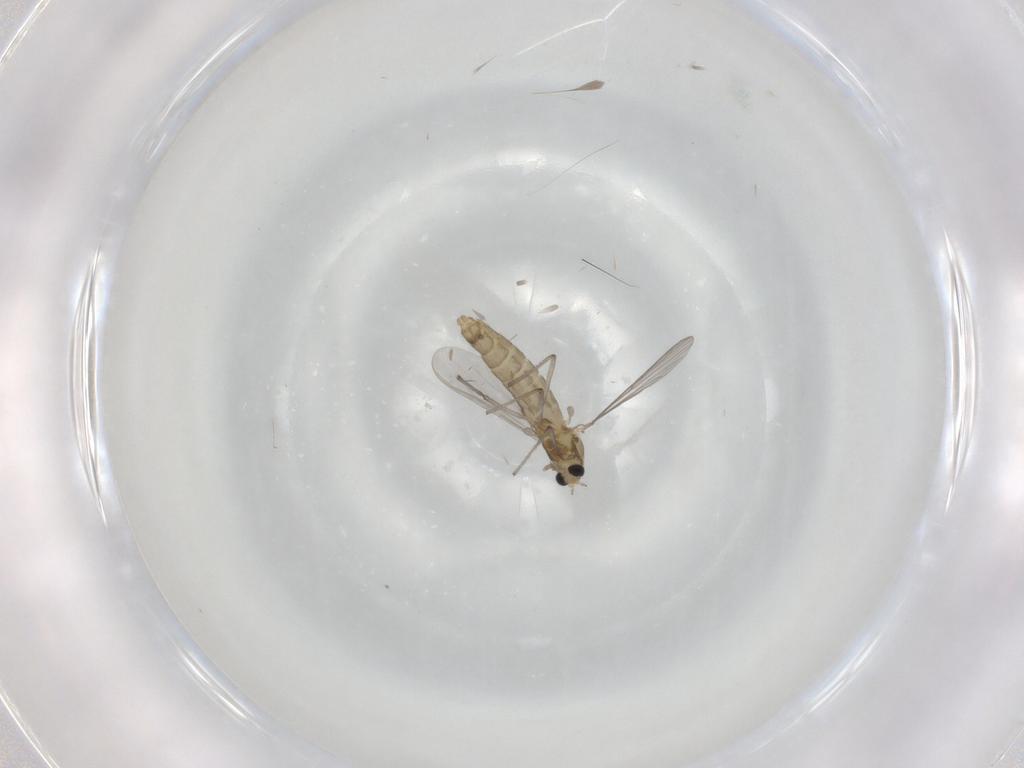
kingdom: Animalia
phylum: Arthropoda
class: Insecta
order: Diptera
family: Chironomidae
